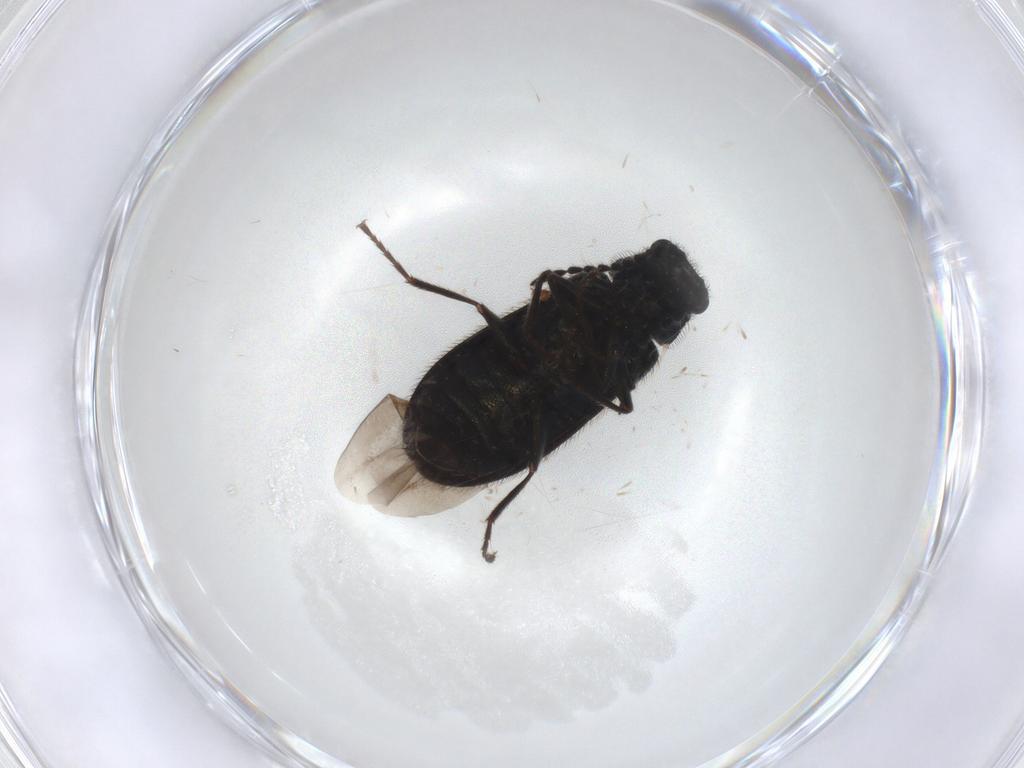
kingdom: Animalia
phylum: Arthropoda
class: Insecta
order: Coleoptera
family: Melyridae
